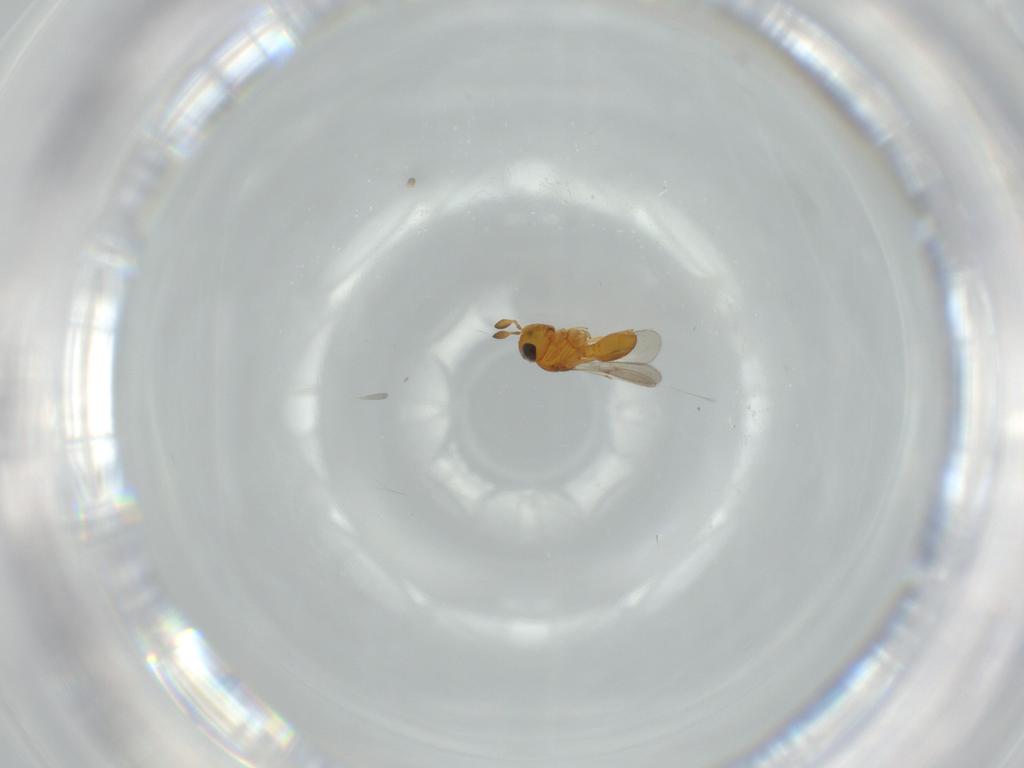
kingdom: Animalia
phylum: Arthropoda
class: Insecta
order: Hymenoptera
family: Scelionidae
